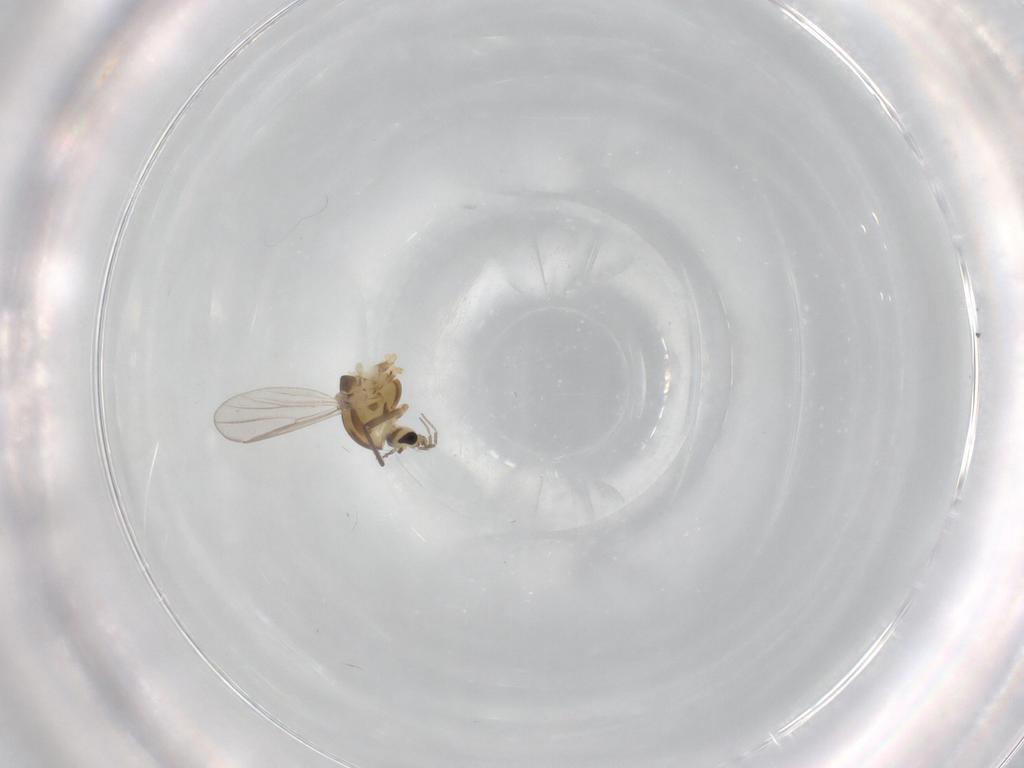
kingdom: Animalia
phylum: Arthropoda
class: Insecta
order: Diptera
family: Chironomidae
